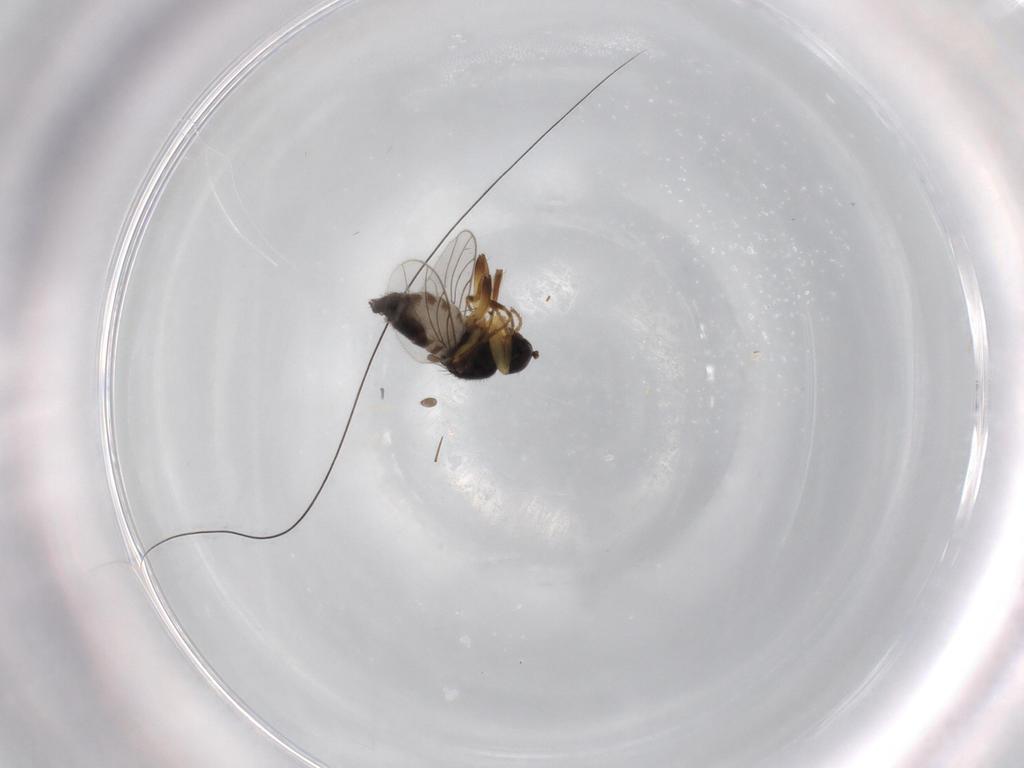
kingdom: Animalia
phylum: Arthropoda
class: Insecta
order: Diptera
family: Hybotidae
